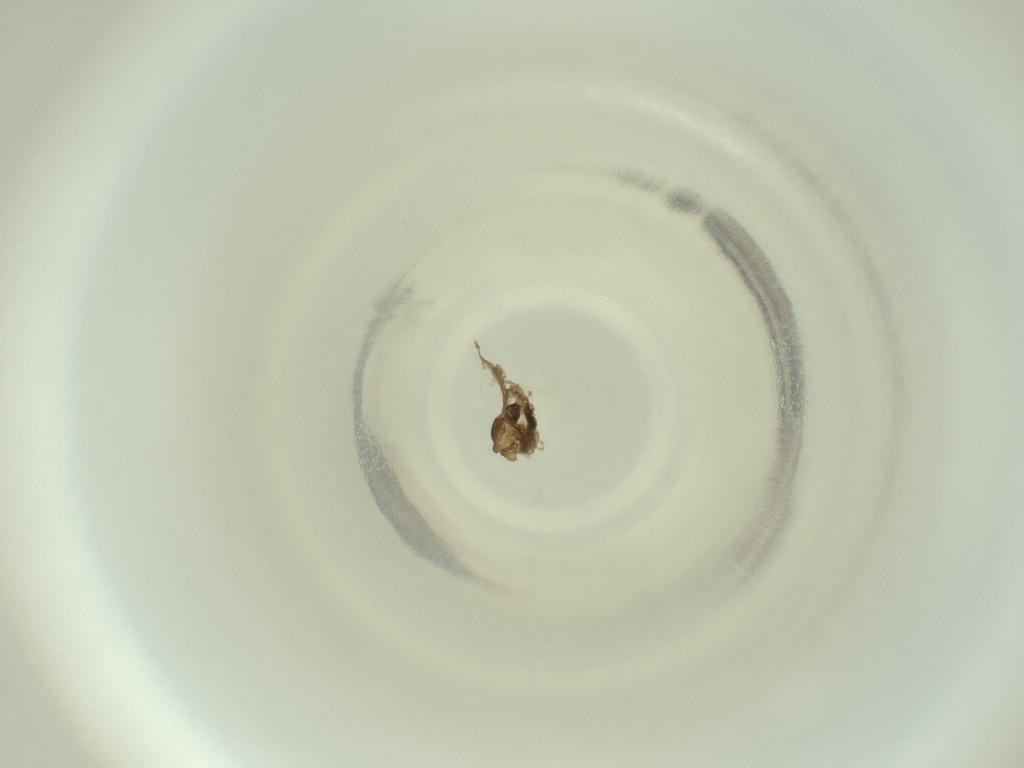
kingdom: Animalia
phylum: Arthropoda
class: Insecta
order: Diptera
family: Cecidomyiidae
